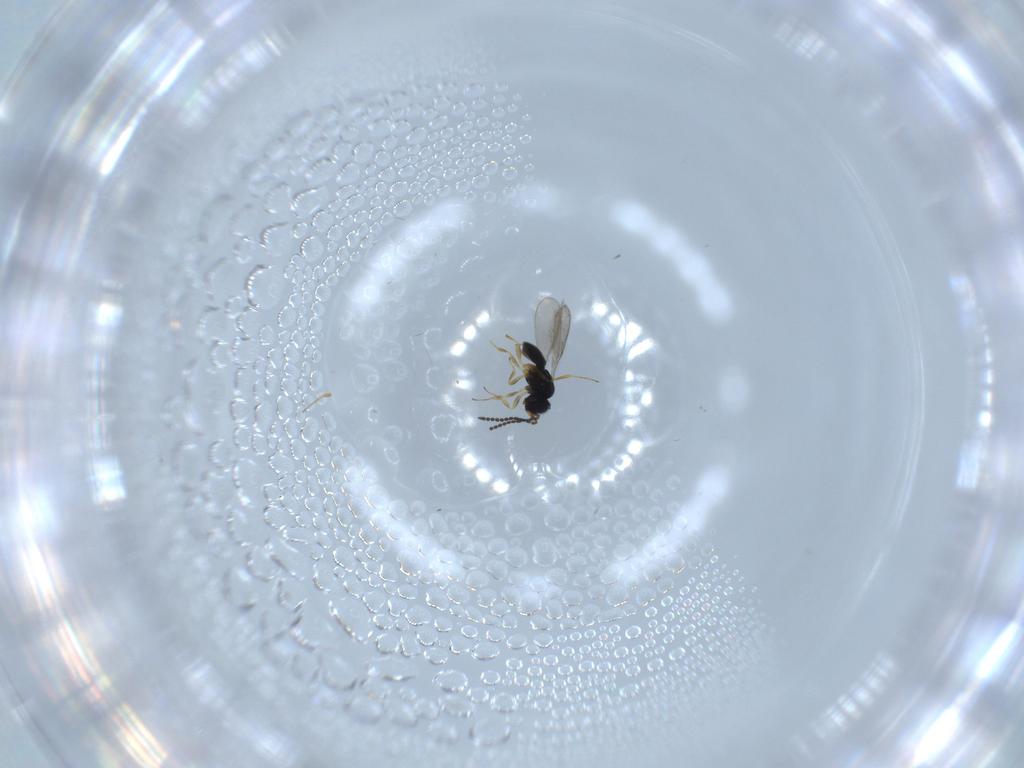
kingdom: Animalia
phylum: Arthropoda
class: Insecta
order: Hymenoptera
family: Scelionidae
